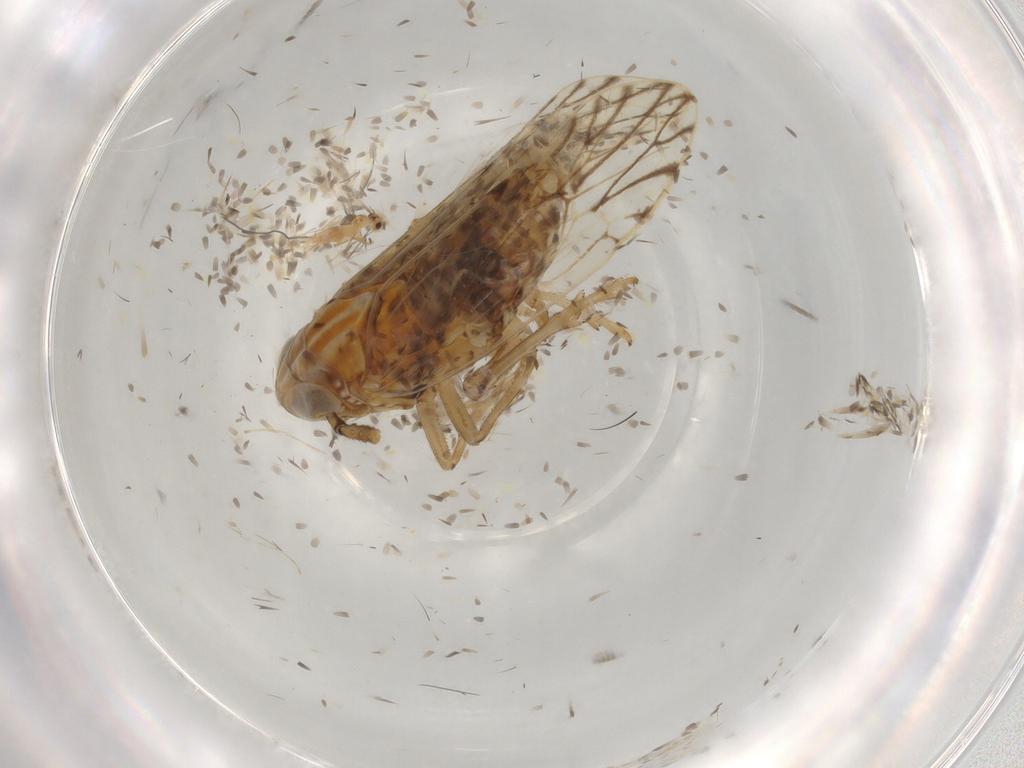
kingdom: Animalia
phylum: Arthropoda
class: Insecta
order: Hemiptera
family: Delphacidae
